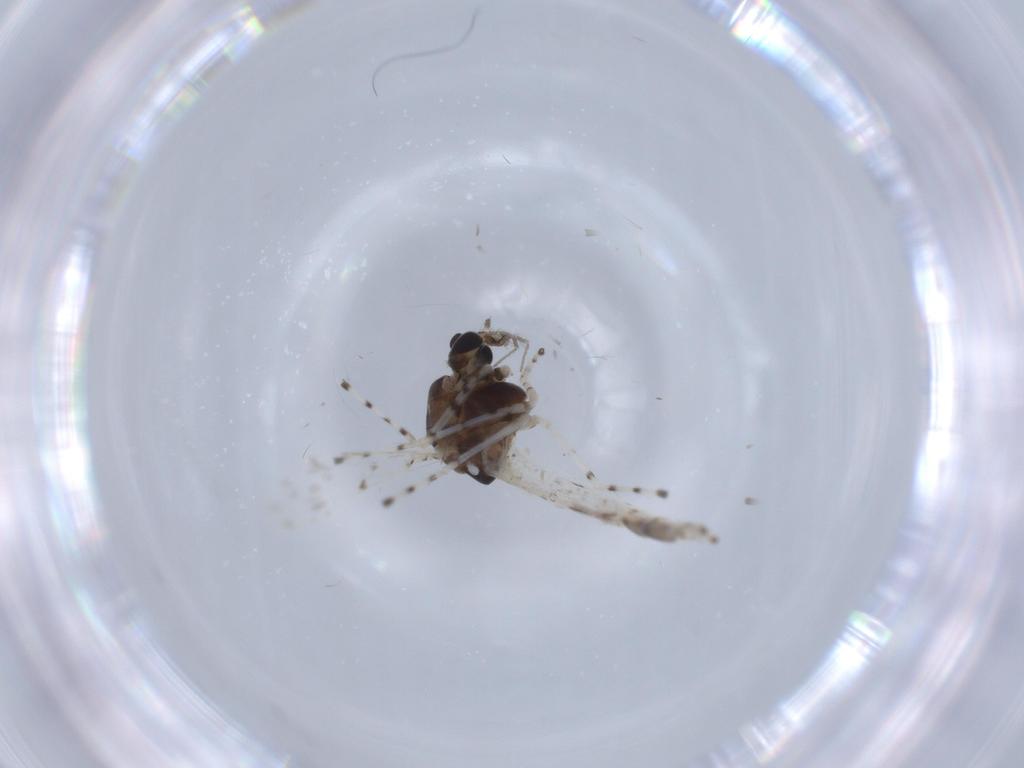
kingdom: Animalia
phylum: Arthropoda
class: Insecta
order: Diptera
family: Chironomidae
